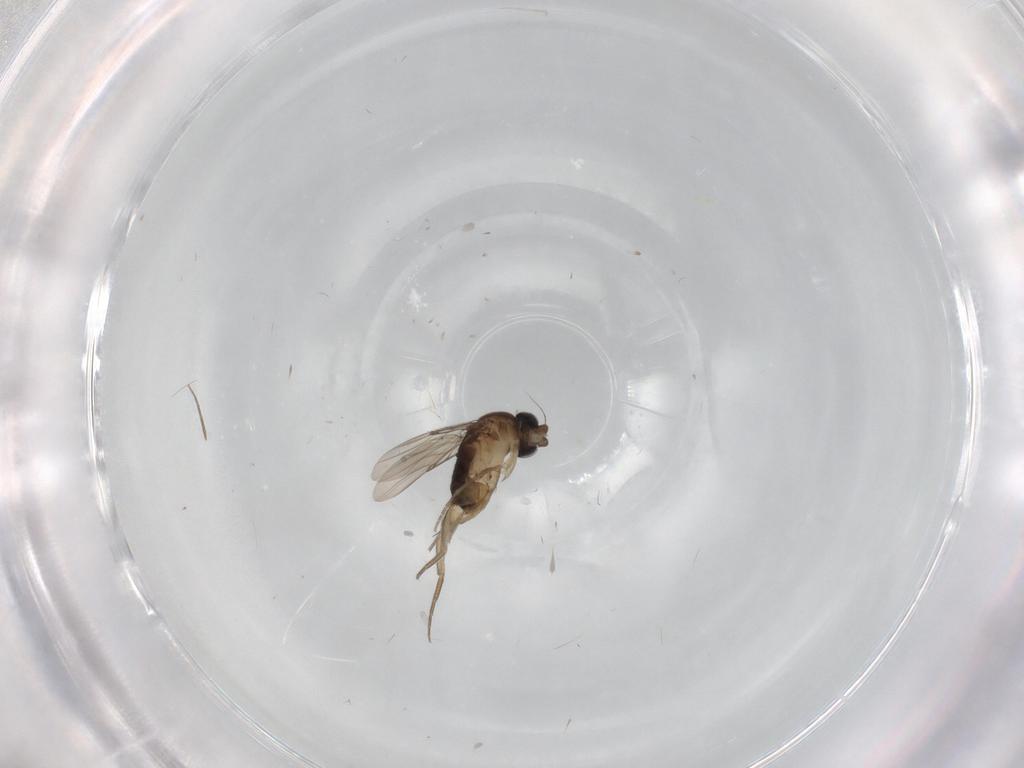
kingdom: Animalia
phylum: Arthropoda
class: Insecta
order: Diptera
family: Phoridae
